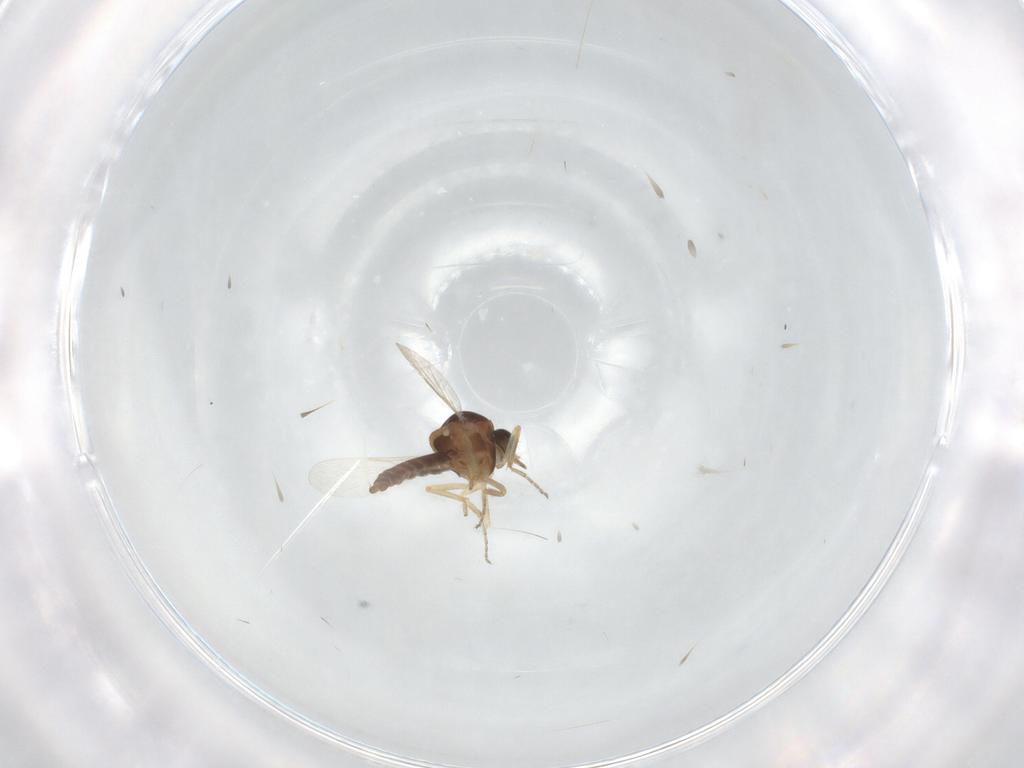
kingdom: Animalia
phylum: Arthropoda
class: Insecta
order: Diptera
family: Ceratopogonidae
